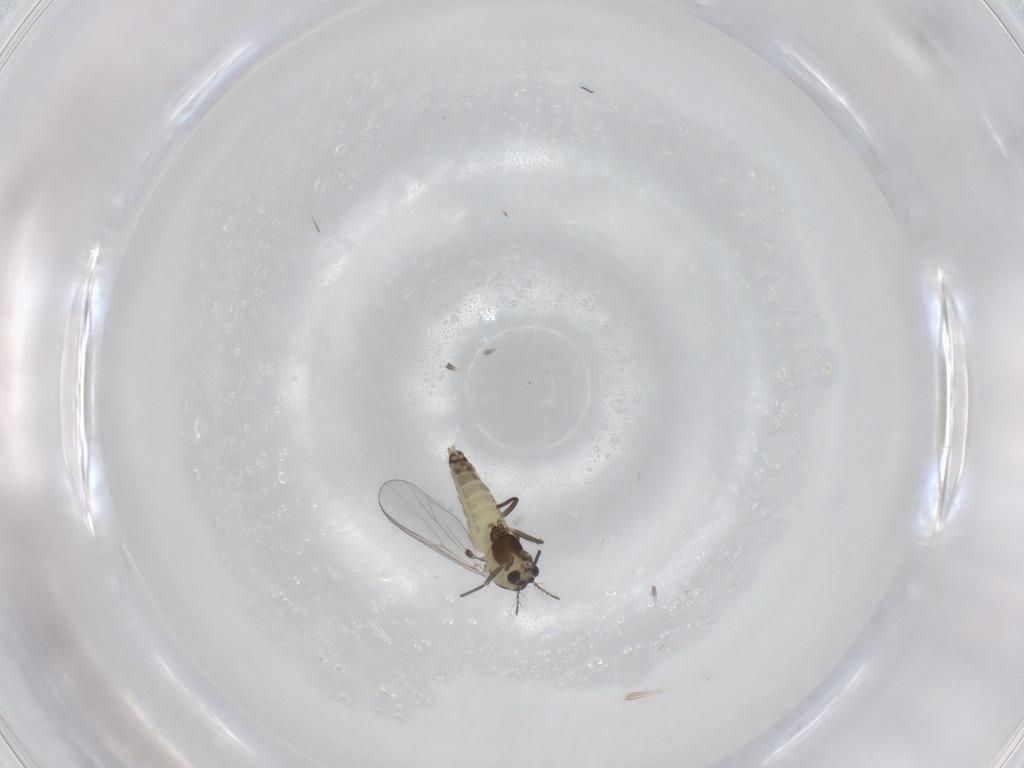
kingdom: Animalia
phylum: Arthropoda
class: Insecta
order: Diptera
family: Chironomidae
